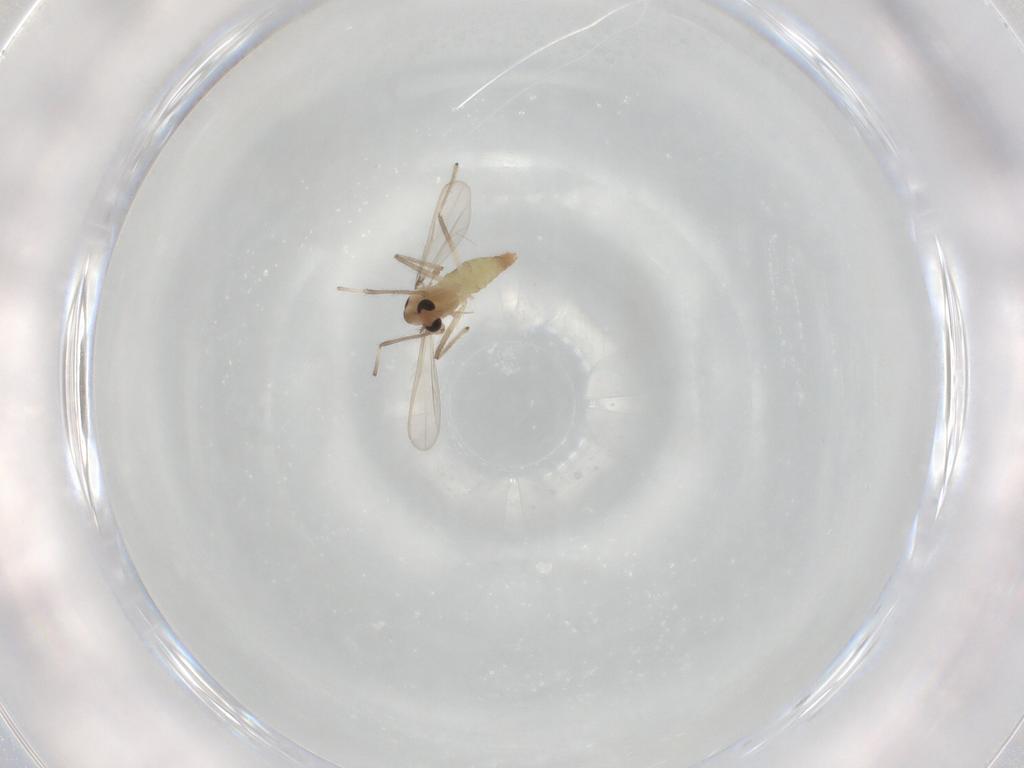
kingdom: Animalia
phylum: Arthropoda
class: Insecta
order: Diptera
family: Chironomidae
